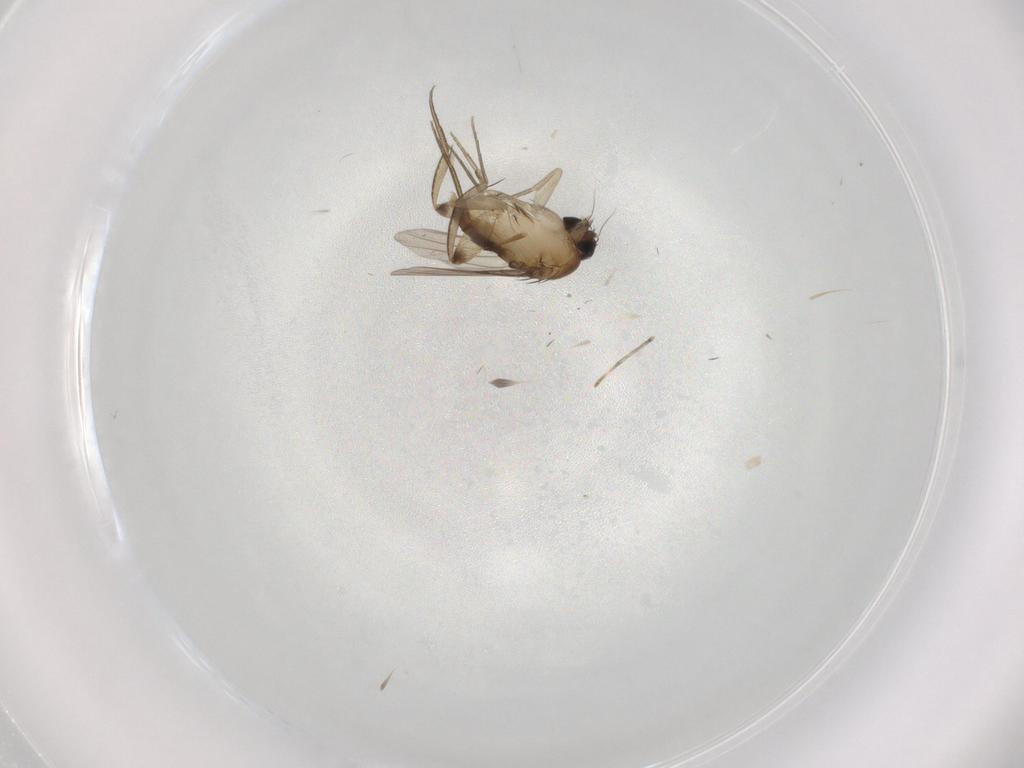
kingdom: Animalia
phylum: Arthropoda
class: Insecta
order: Diptera
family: Phoridae
